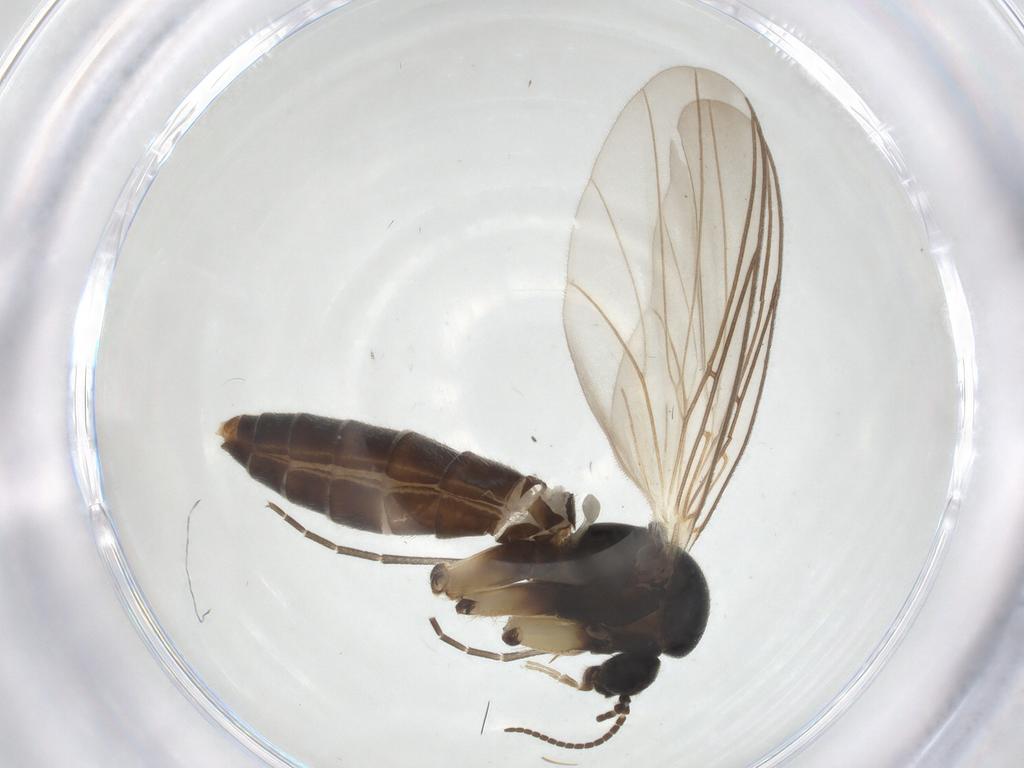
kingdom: Animalia
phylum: Arthropoda
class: Insecta
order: Diptera
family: Mycetophilidae
